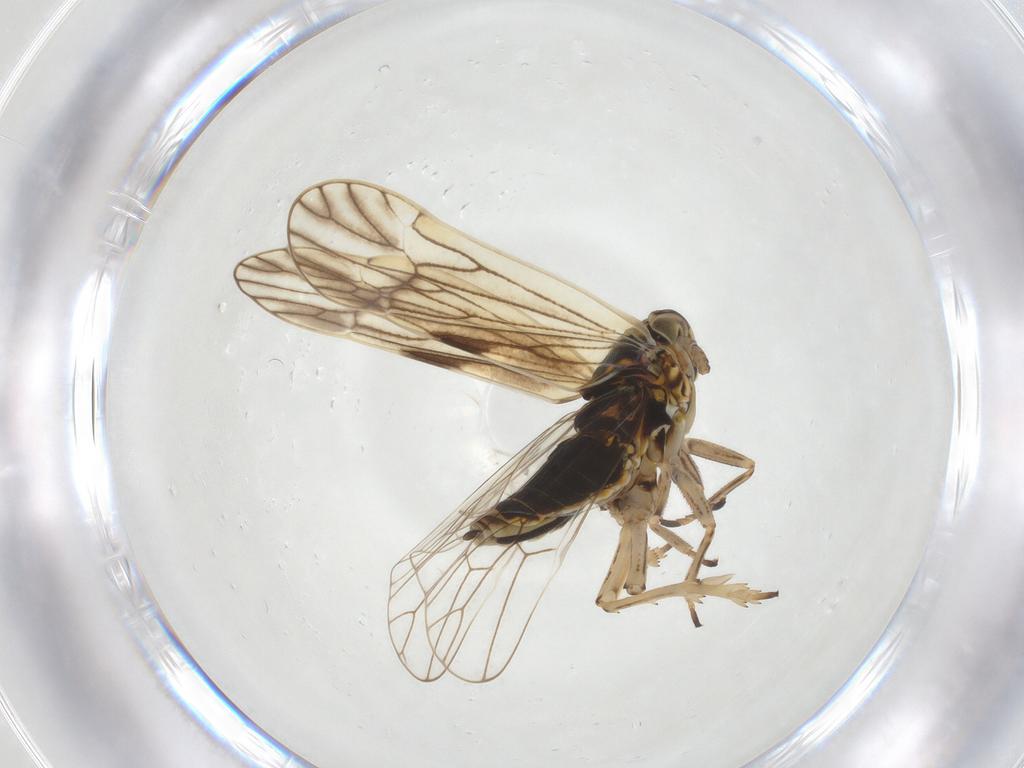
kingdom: Animalia
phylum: Arthropoda
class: Insecta
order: Hemiptera
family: Delphacidae
